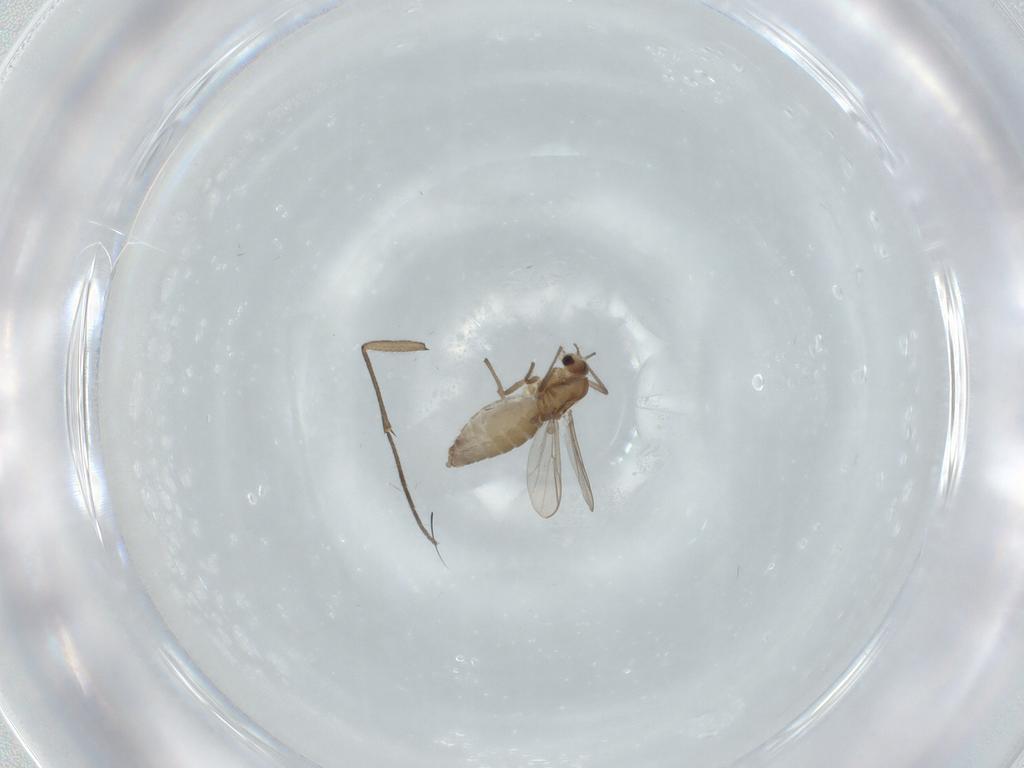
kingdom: Animalia
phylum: Arthropoda
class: Insecta
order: Diptera
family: Chironomidae
